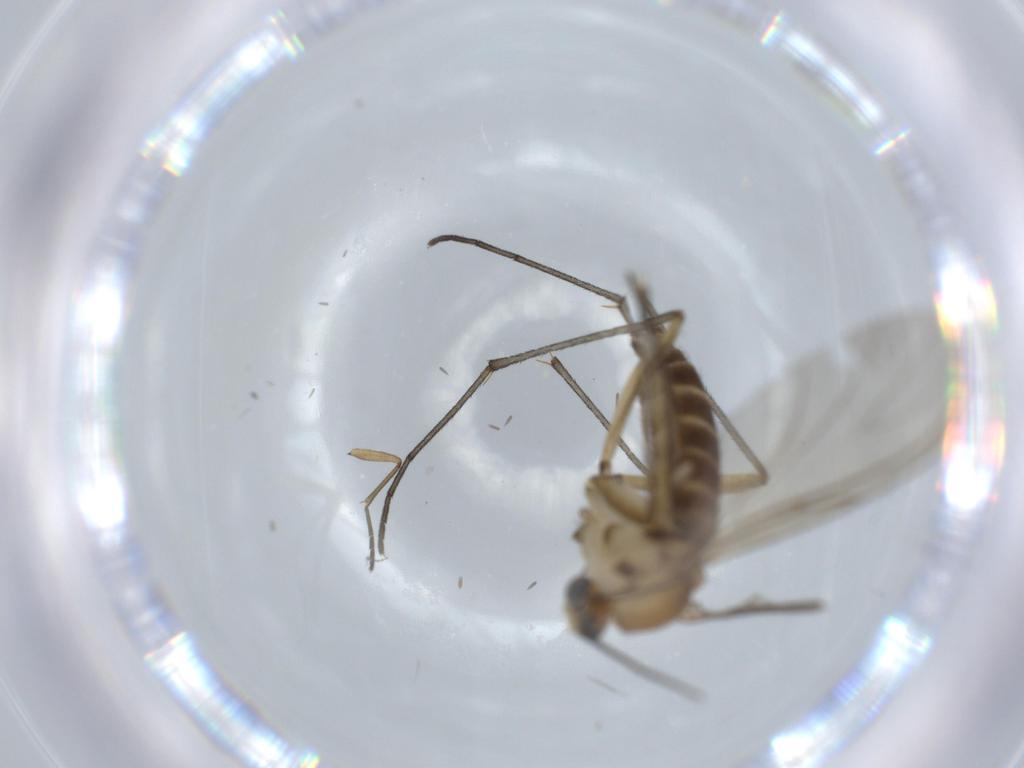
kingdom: Animalia
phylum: Arthropoda
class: Insecta
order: Diptera
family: Sciaridae
